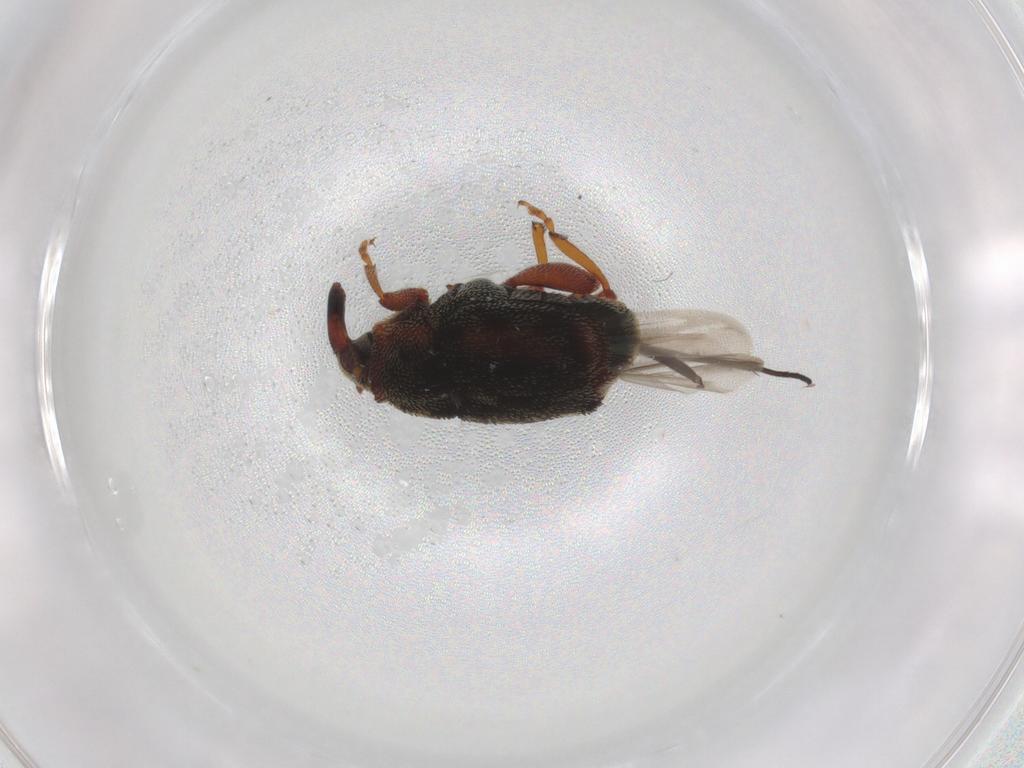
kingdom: Animalia
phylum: Arthropoda
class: Insecta
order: Coleoptera
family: Curculionidae
